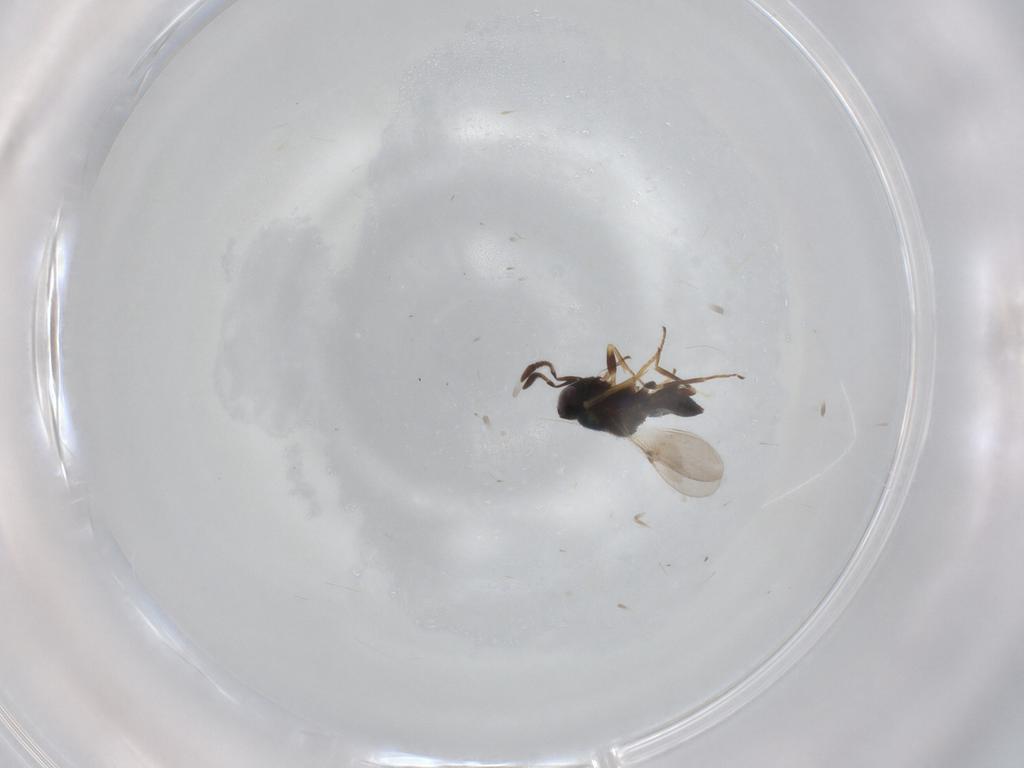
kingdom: Animalia
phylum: Arthropoda
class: Insecta
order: Hymenoptera
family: Encyrtidae
